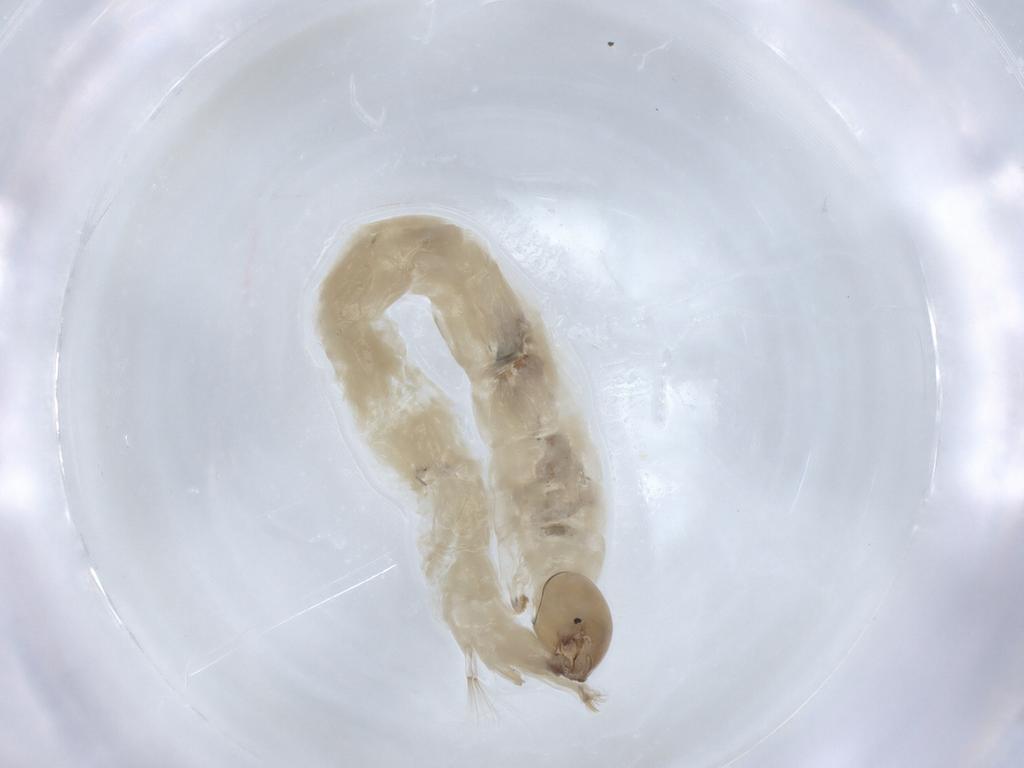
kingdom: Animalia
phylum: Arthropoda
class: Insecta
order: Diptera
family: Chironomidae
